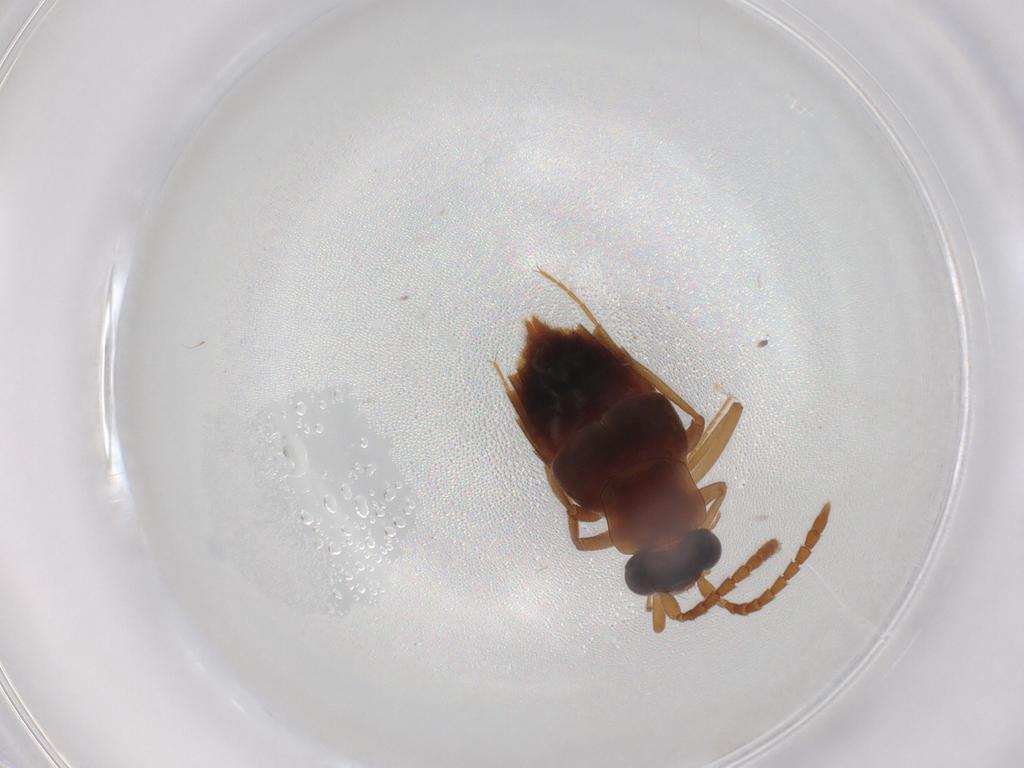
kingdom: Animalia
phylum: Arthropoda
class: Insecta
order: Coleoptera
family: Staphylinidae
